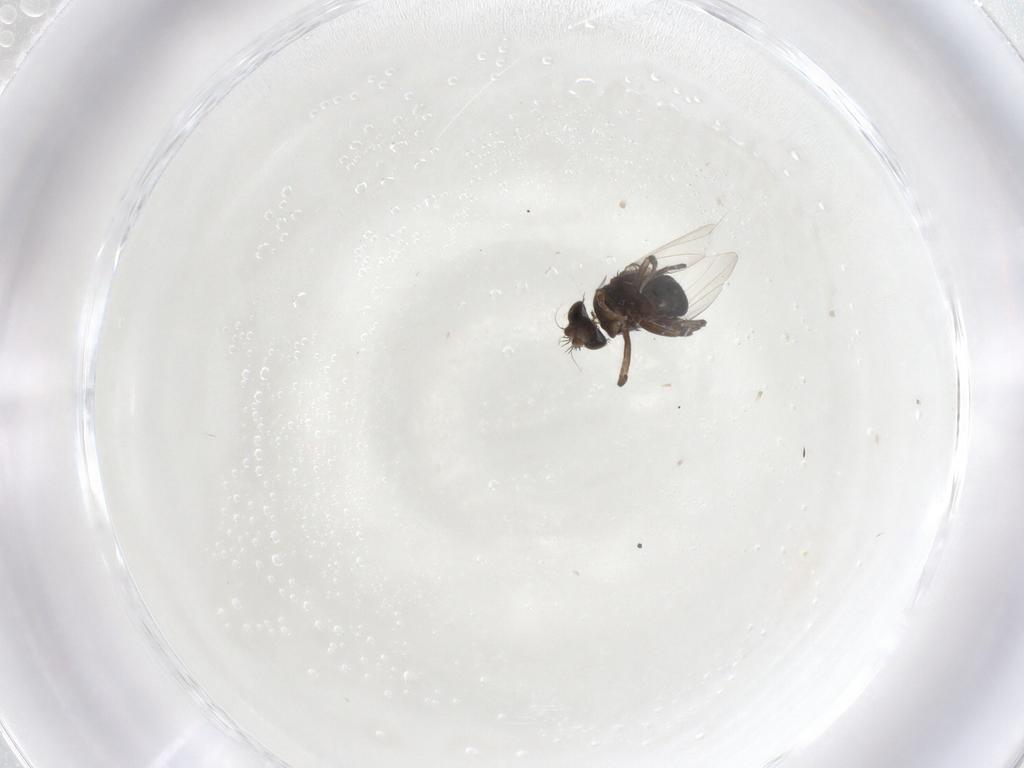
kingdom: Animalia
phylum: Arthropoda
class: Insecta
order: Diptera
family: Phoridae
